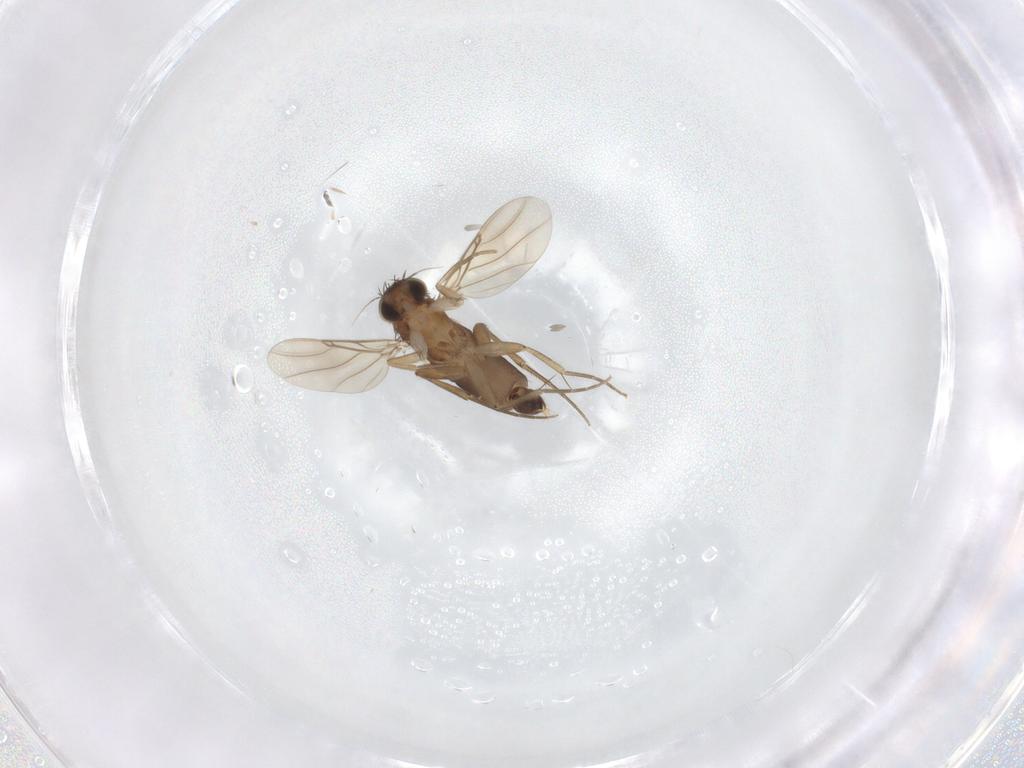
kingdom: Animalia
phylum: Arthropoda
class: Insecta
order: Diptera
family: Phoridae
